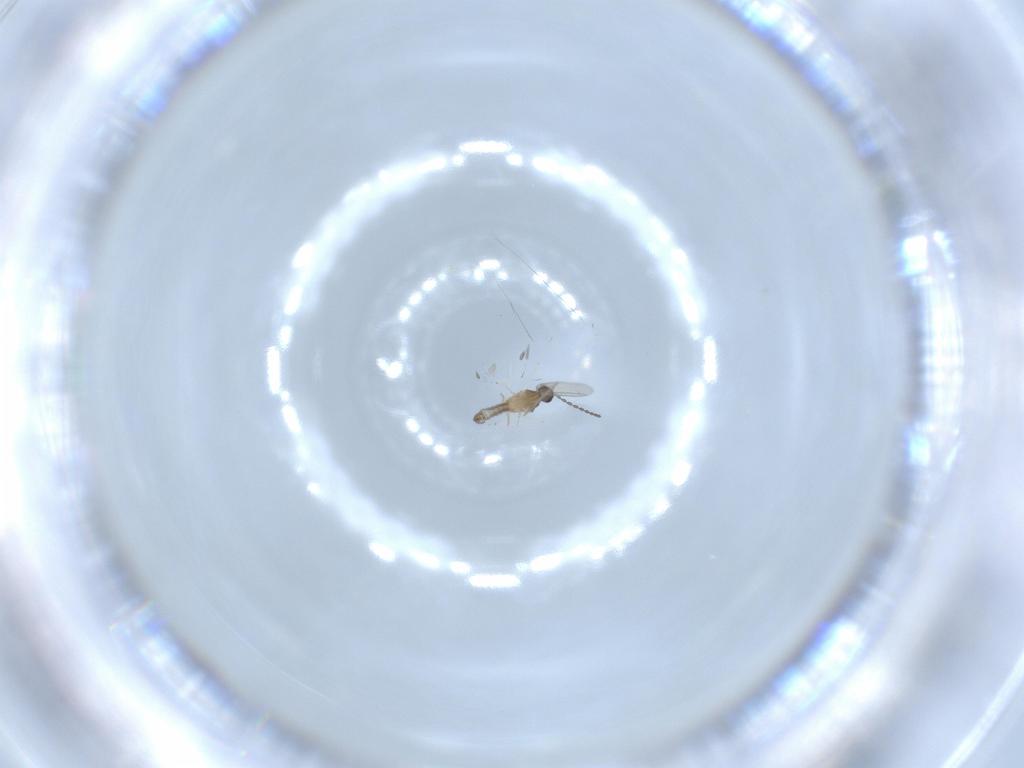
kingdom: Animalia
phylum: Arthropoda
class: Insecta
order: Diptera
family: Cecidomyiidae
